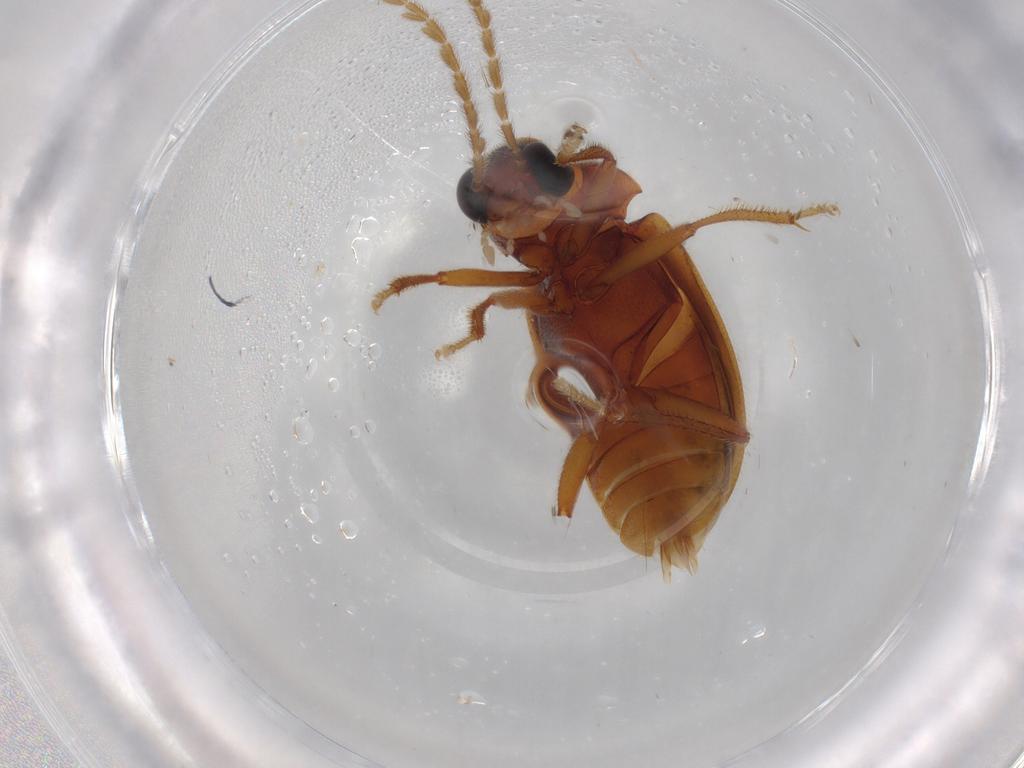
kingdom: Animalia
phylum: Arthropoda
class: Insecta
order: Coleoptera
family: Ptilodactylidae
